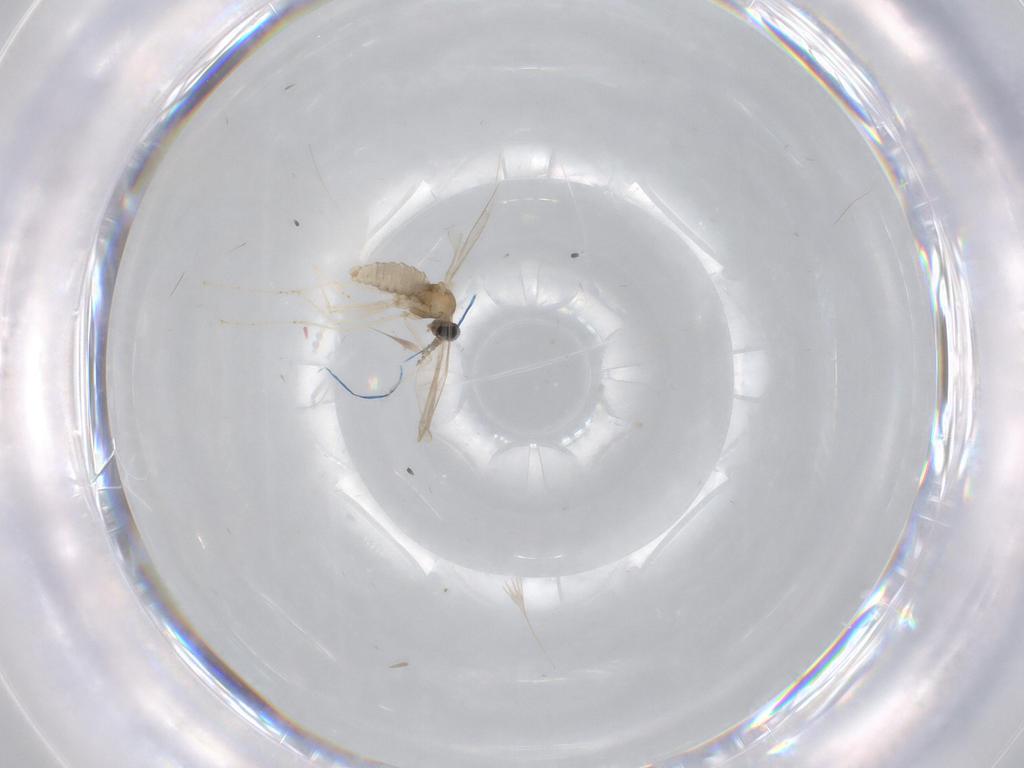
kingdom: Animalia
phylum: Arthropoda
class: Insecta
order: Diptera
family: Cecidomyiidae
